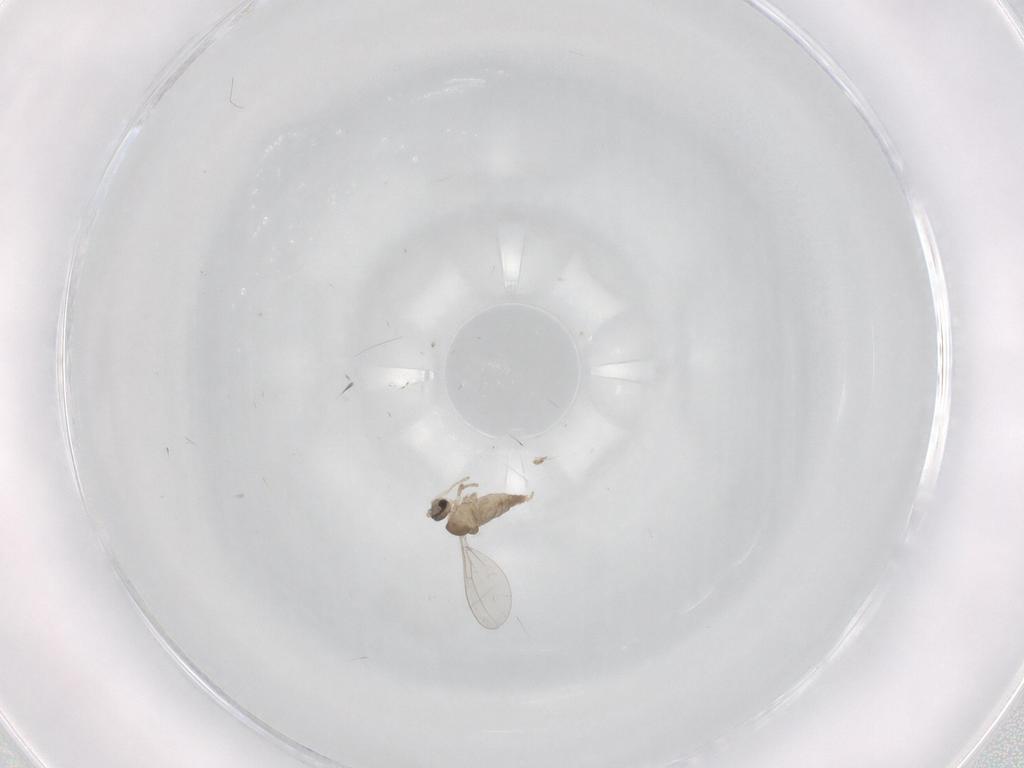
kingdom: Animalia
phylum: Arthropoda
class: Insecta
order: Diptera
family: Cecidomyiidae
